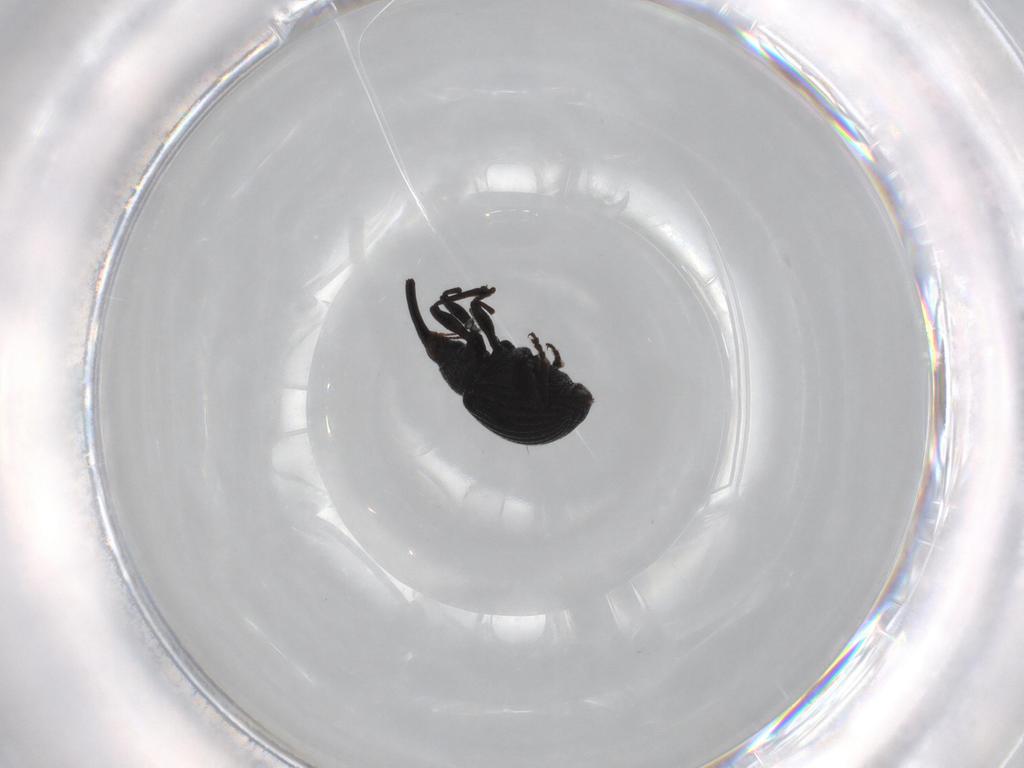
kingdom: Animalia
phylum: Arthropoda
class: Insecta
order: Coleoptera
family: Brentidae
